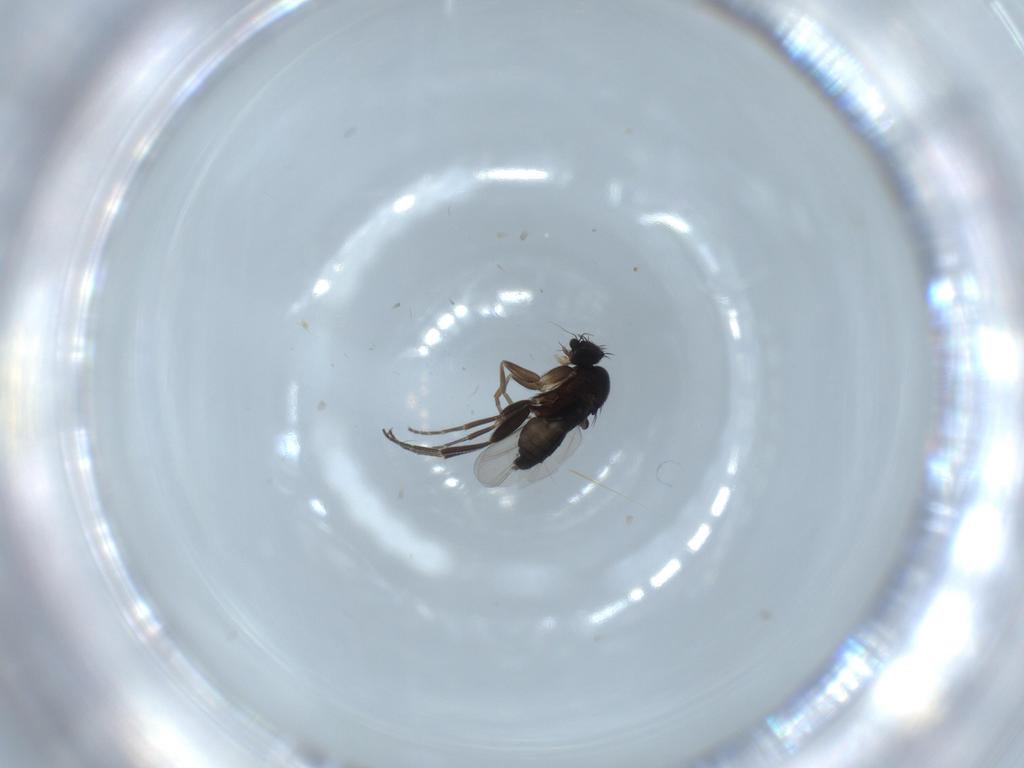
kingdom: Animalia
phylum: Arthropoda
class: Insecta
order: Diptera
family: Phoridae
